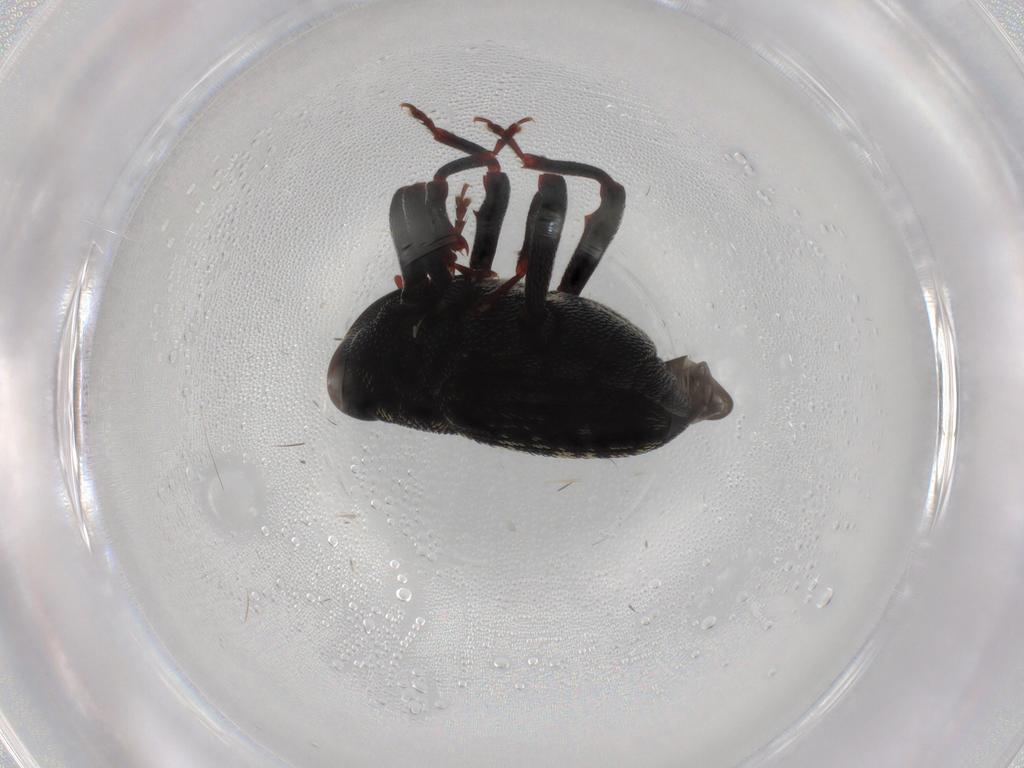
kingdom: Animalia
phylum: Arthropoda
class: Insecta
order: Coleoptera
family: Curculionidae
